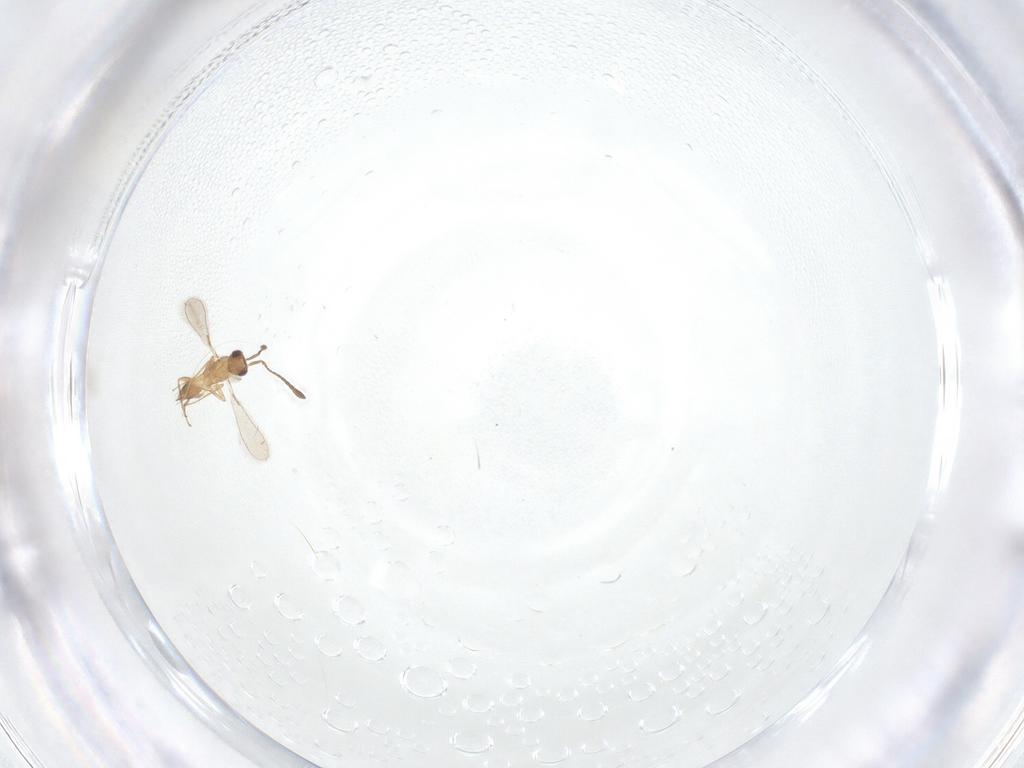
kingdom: Animalia
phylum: Arthropoda
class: Insecta
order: Hymenoptera
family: Mymaridae
